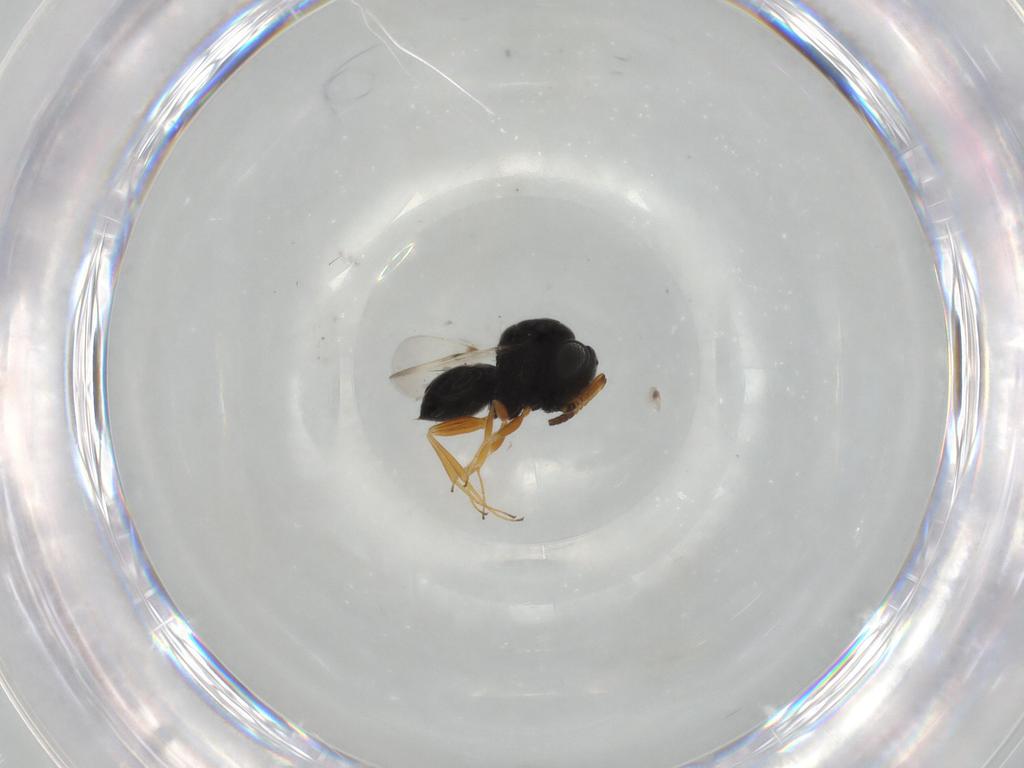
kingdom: Animalia
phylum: Arthropoda
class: Insecta
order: Hymenoptera
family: Scelionidae
